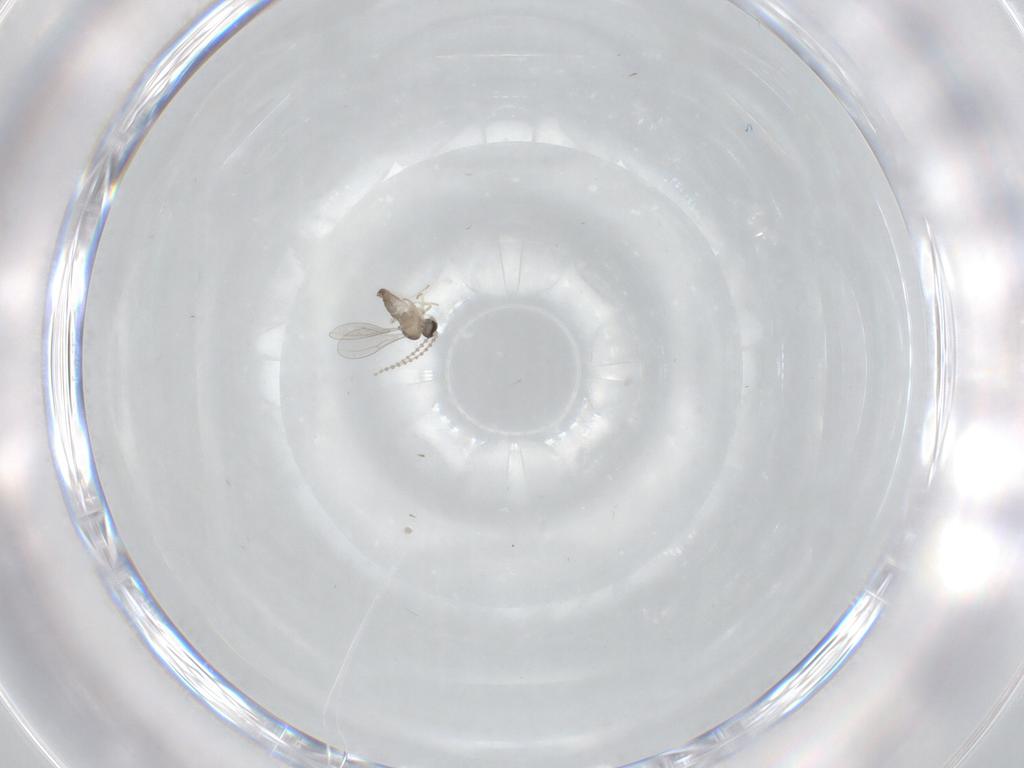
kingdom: Animalia
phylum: Arthropoda
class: Insecta
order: Diptera
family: Cecidomyiidae
